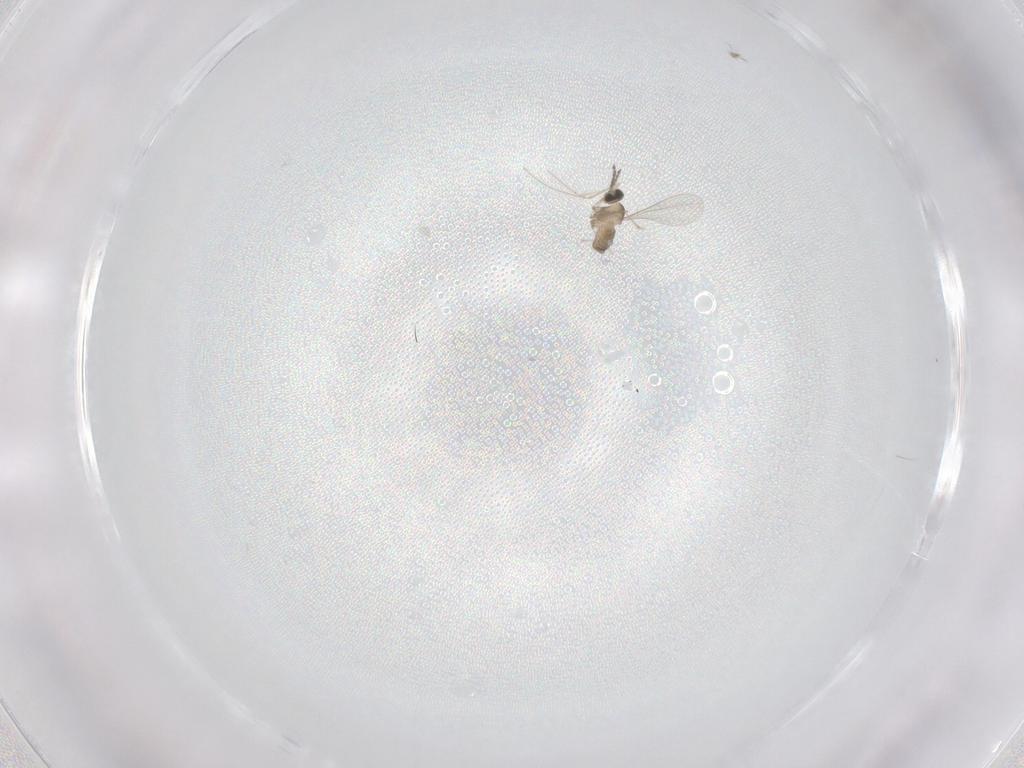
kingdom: Animalia
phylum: Arthropoda
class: Insecta
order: Diptera
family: Cecidomyiidae
